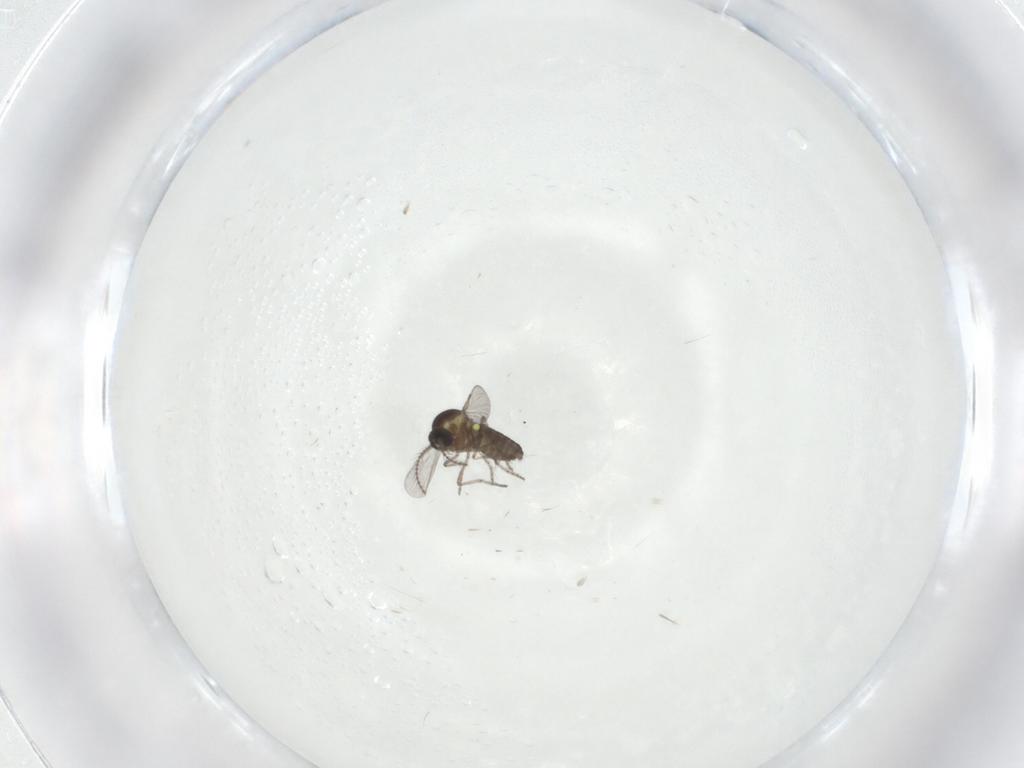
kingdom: Animalia
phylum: Arthropoda
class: Insecta
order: Diptera
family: Ceratopogonidae
